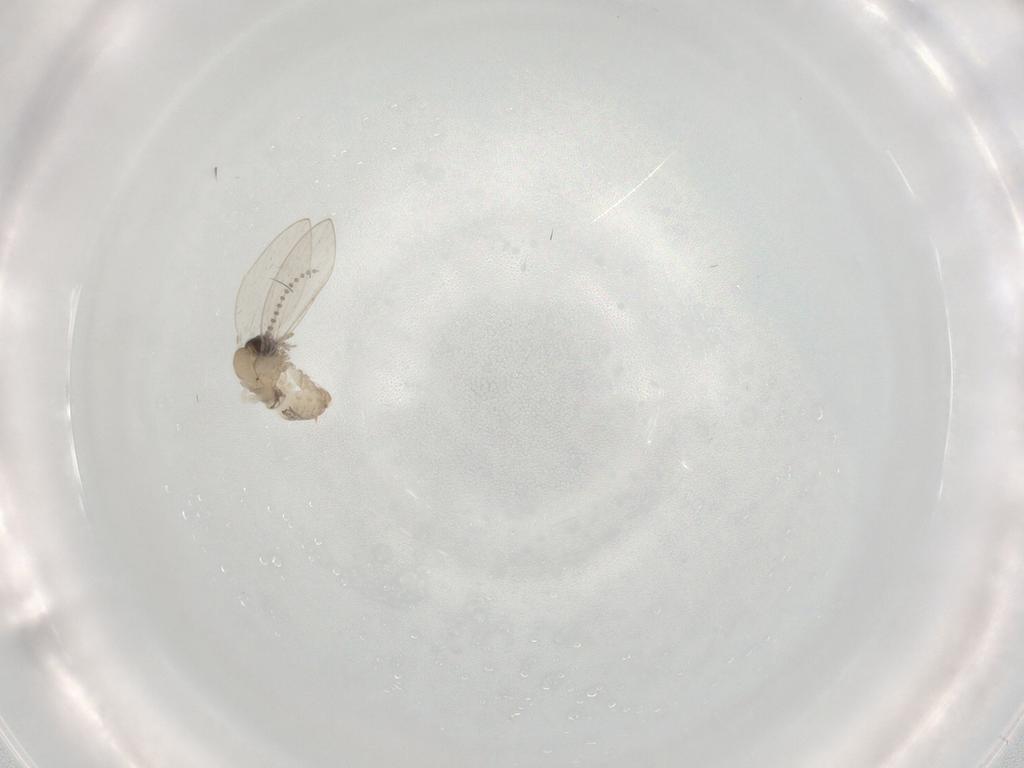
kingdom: Animalia
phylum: Arthropoda
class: Insecta
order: Diptera
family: Psychodidae
